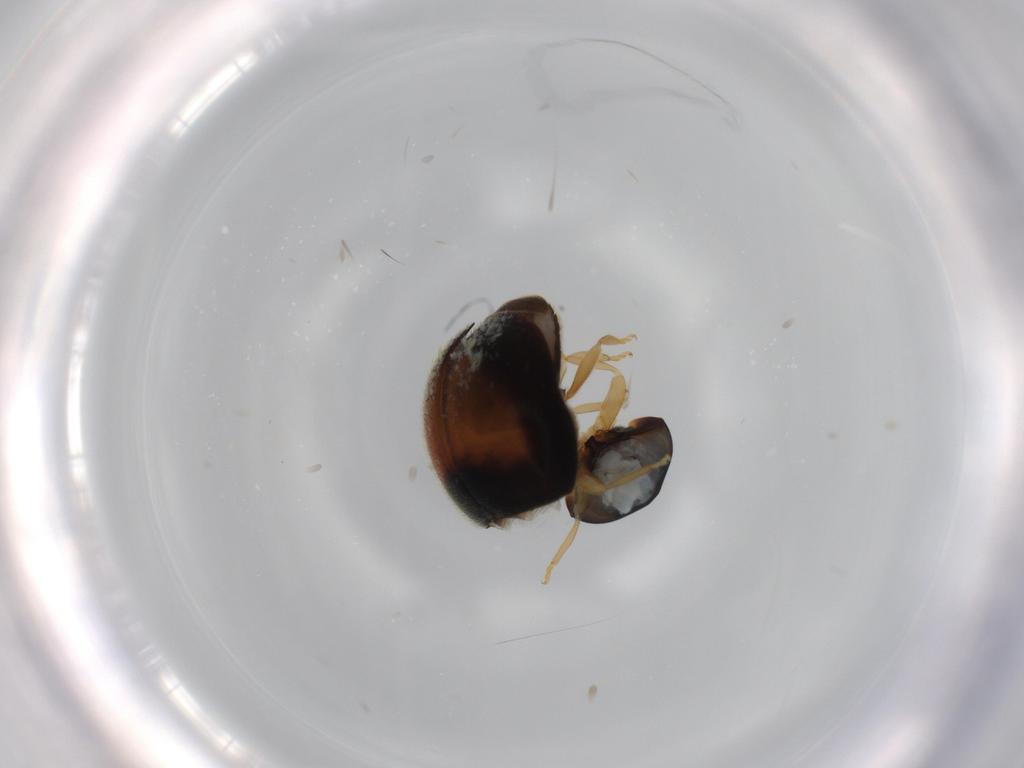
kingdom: Animalia
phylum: Arthropoda
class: Insecta
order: Coleoptera
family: Coccinellidae
